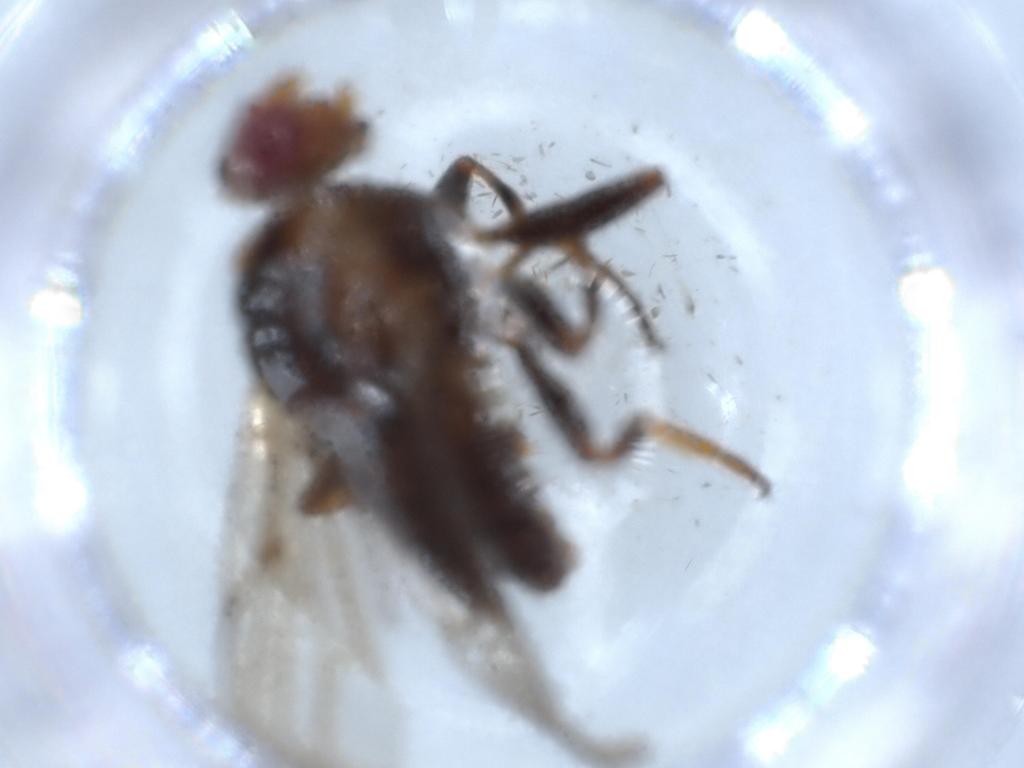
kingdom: Animalia
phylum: Arthropoda
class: Insecta
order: Diptera
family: Chloropidae
